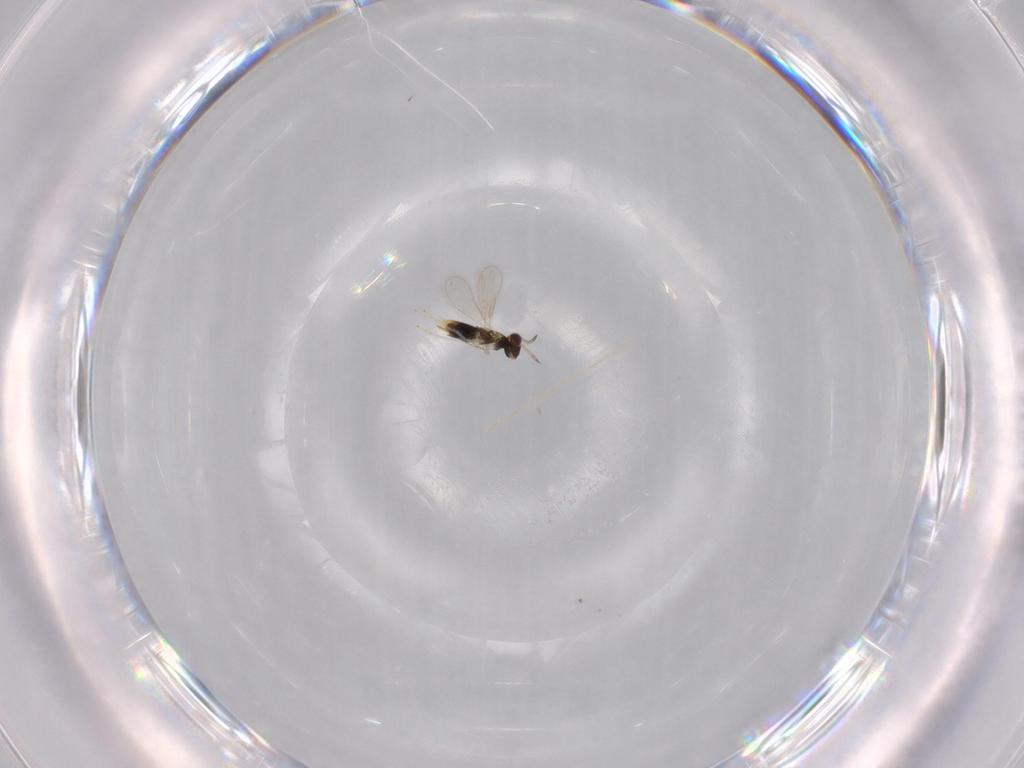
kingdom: Animalia
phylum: Arthropoda
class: Insecta
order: Hymenoptera
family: Aphelinidae
